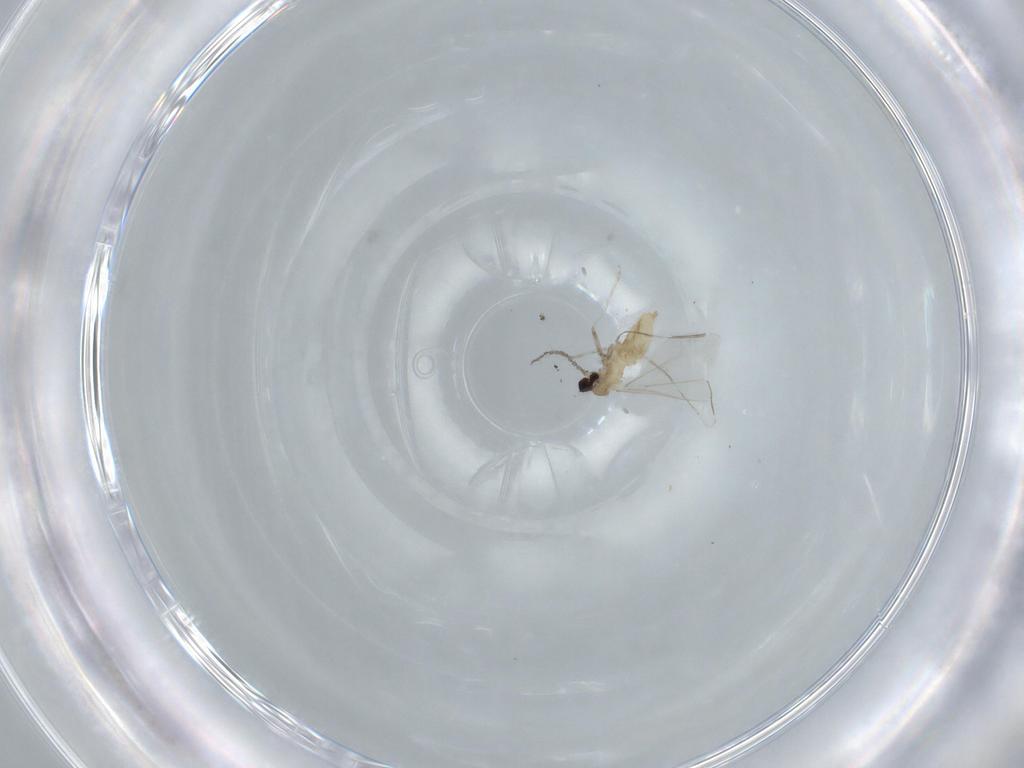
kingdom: Animalia
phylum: Arthropoda
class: Insecta
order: Diptera
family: Cecidomyiidae
